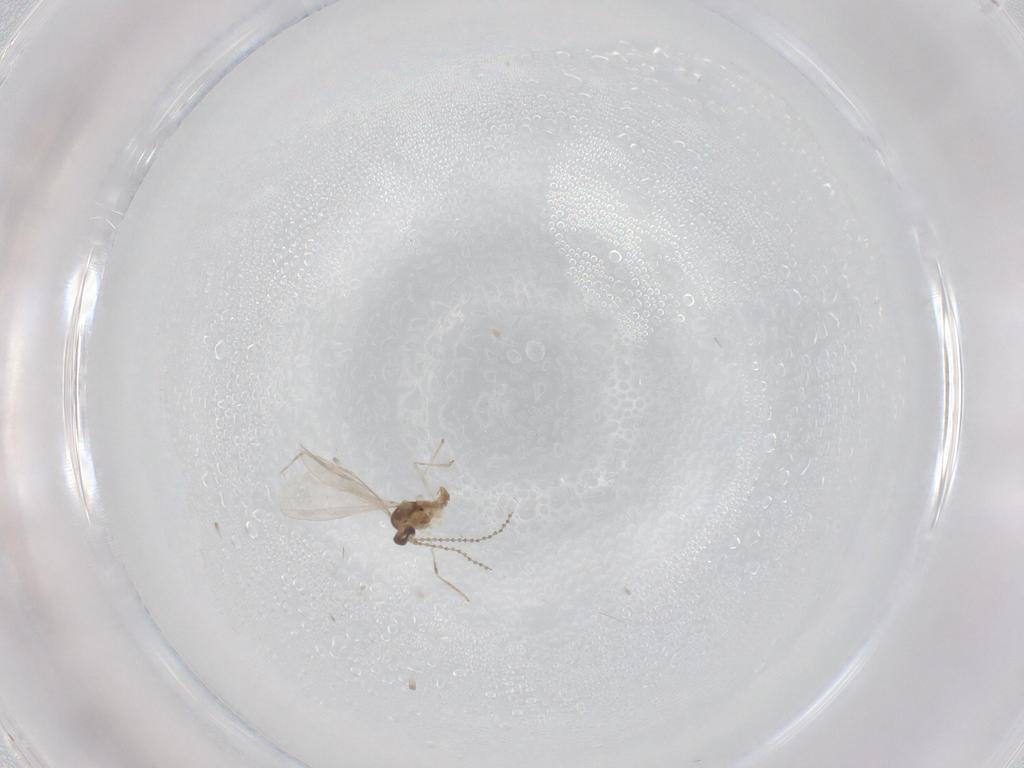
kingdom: Animalia
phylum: Arthropoda
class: Insecta
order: Diptera
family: Cecidomyiidae
